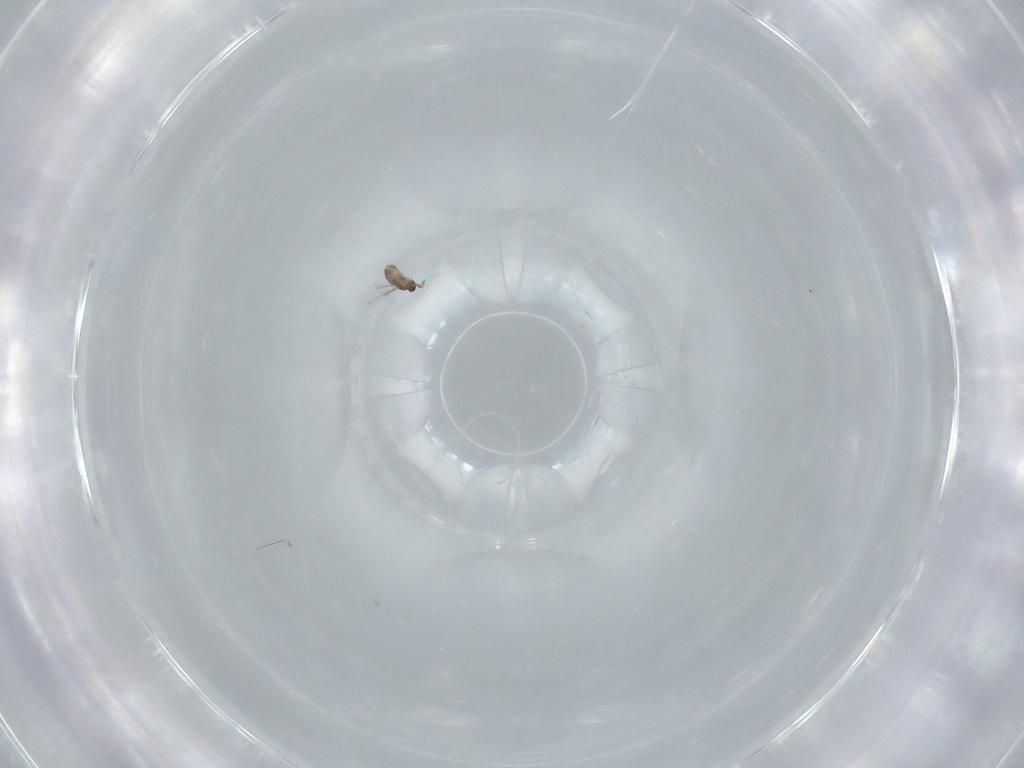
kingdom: Animalia
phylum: Arthropoda
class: Insecta
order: Hymenoptera
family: Mymaridae
